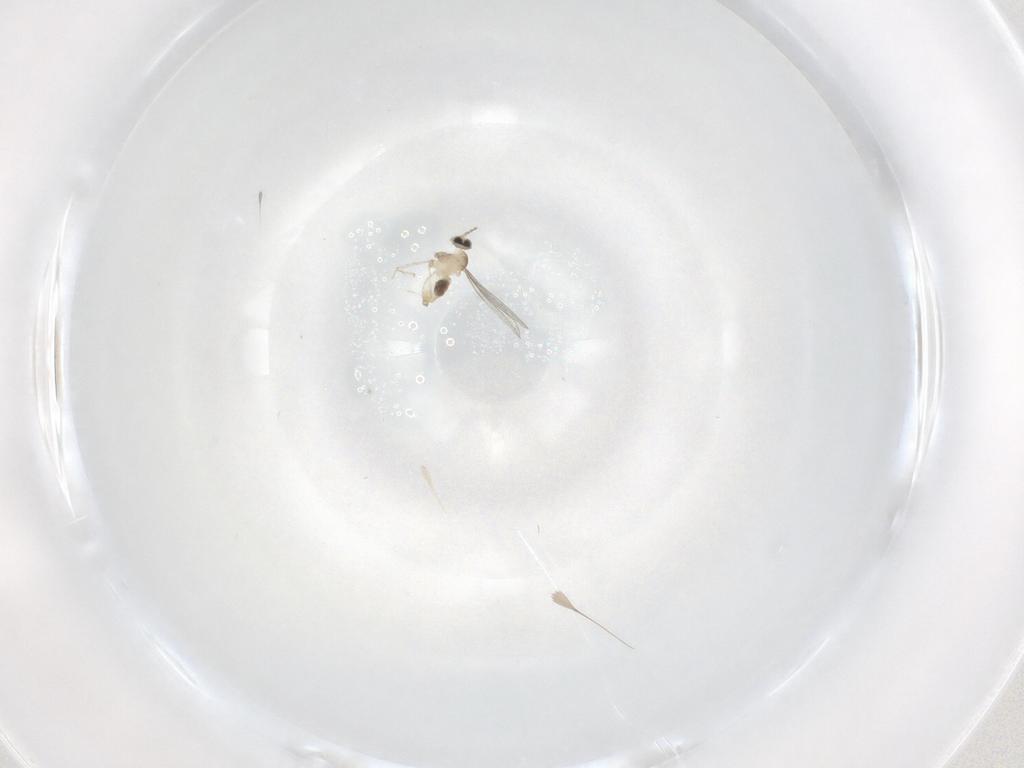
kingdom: Animalia
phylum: Arthropoda
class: Insecta
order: Diptera
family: Cecidomyiidae
